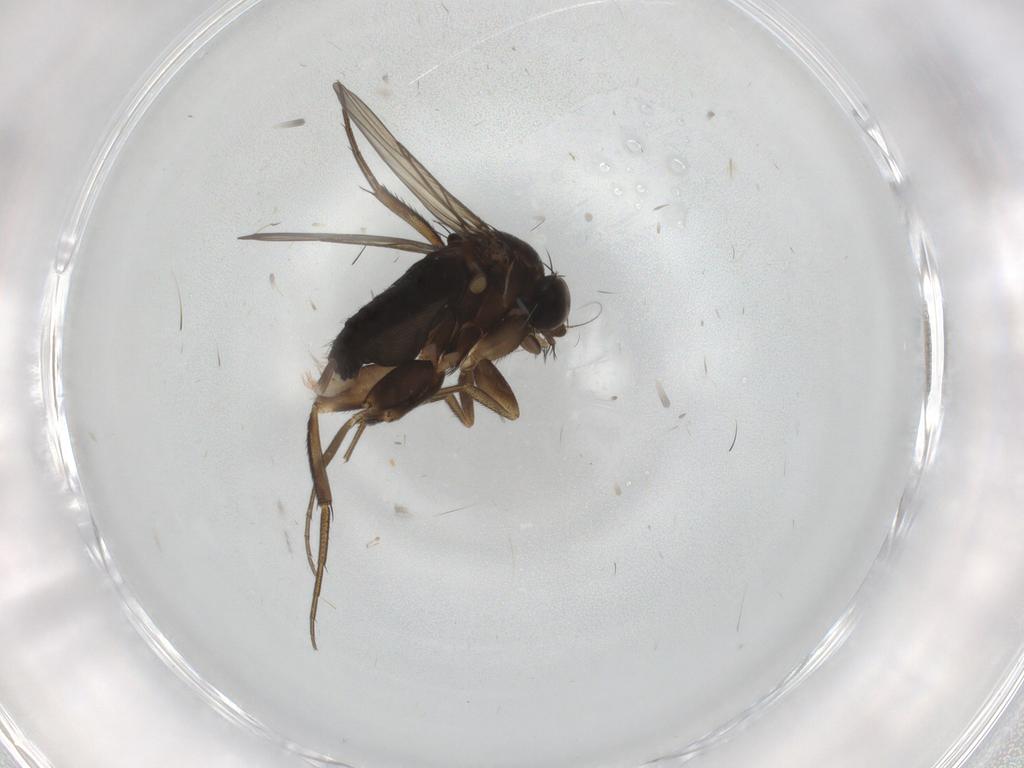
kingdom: Animalia
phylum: Arthropoda
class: Insecta
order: Diptera
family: Phoridae
